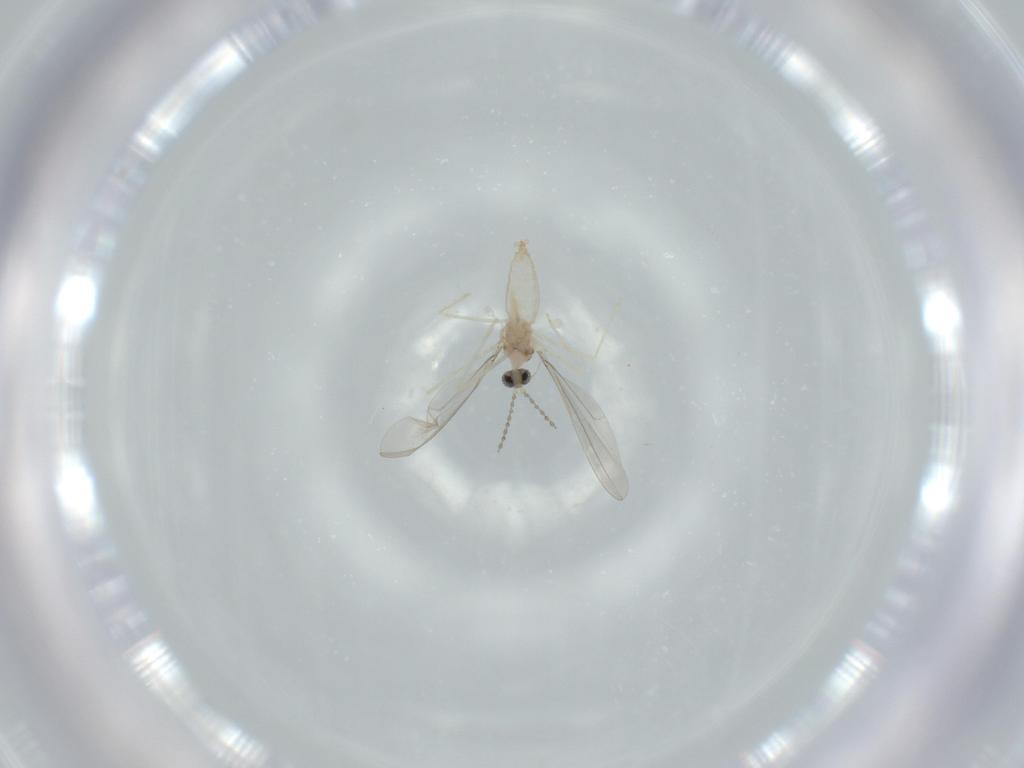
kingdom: Animalia
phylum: Arthropoda
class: Insecta
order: Diptera
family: Cecidomyiidae
